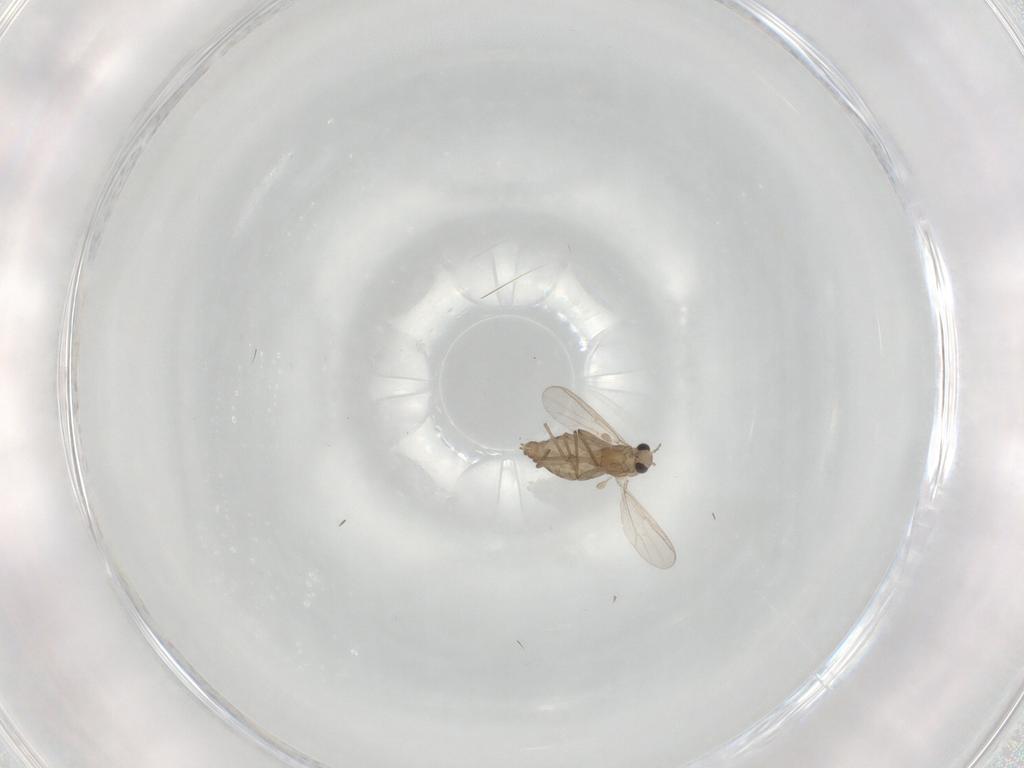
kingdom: Animalia
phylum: Arthropoda
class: Insecta
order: Diptera
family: Chironomidae
